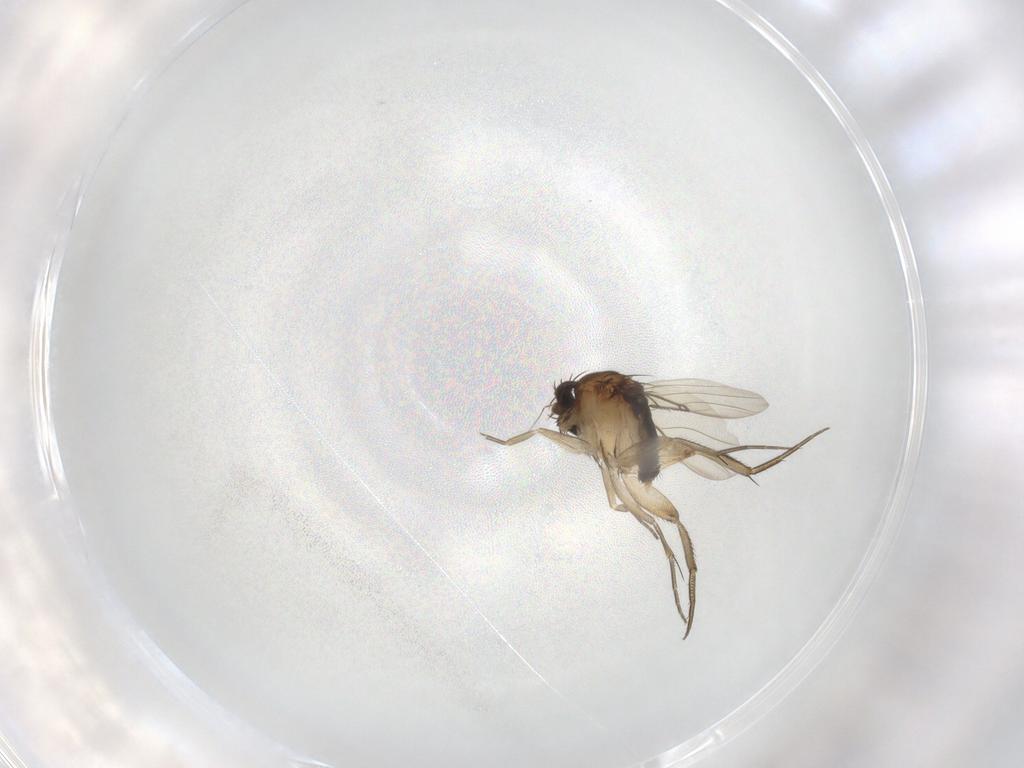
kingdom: Animalia
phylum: Arthropoda
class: Insecta
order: Diptera
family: Phoridae
